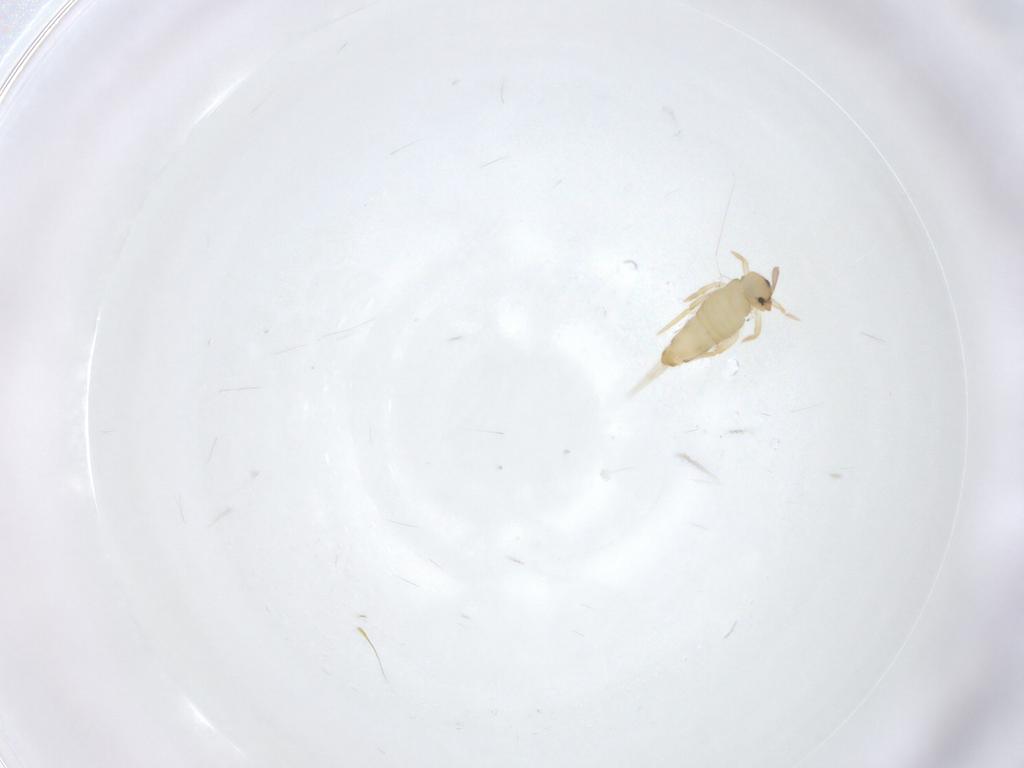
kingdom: Animalia
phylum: Arthropoda
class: Collembola
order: Entomobryomorpha
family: Entomobryidae
